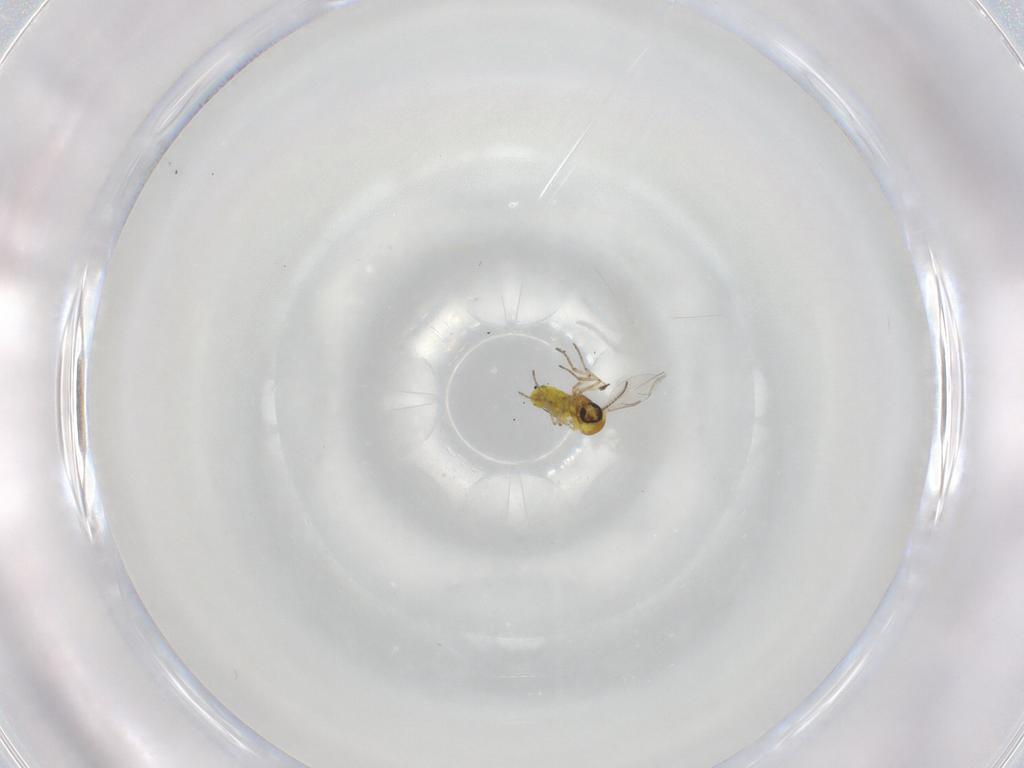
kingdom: Animalia
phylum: Arthropoda
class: Insecta
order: Diptera
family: Ceratopogonidae
